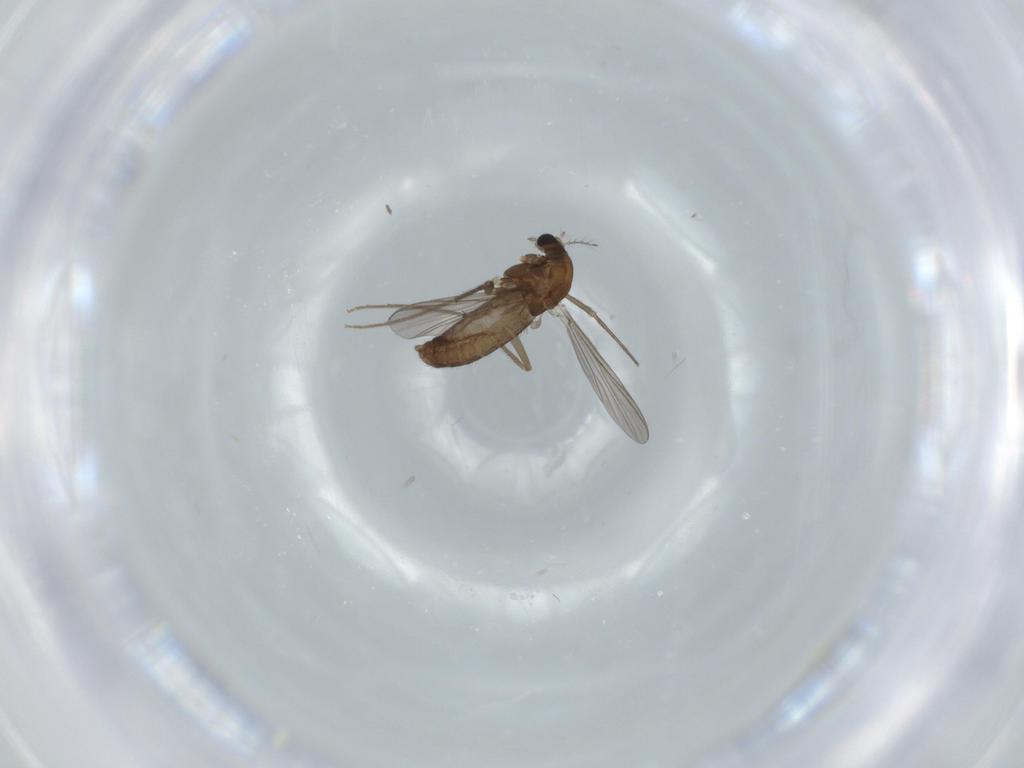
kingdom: Animalia
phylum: Arthropoda
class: Insecta
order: Diptera
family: Chironomidae
